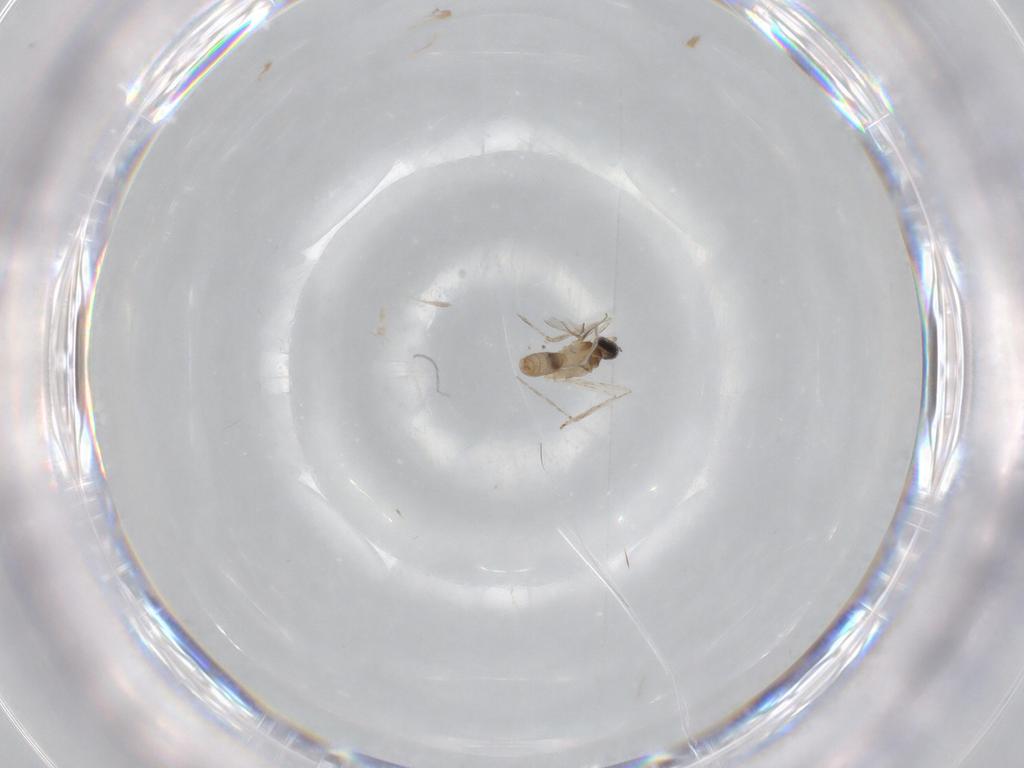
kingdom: Animalia
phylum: Arthropoda
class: Insecta
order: Diptera
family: Cecidomyiidae
